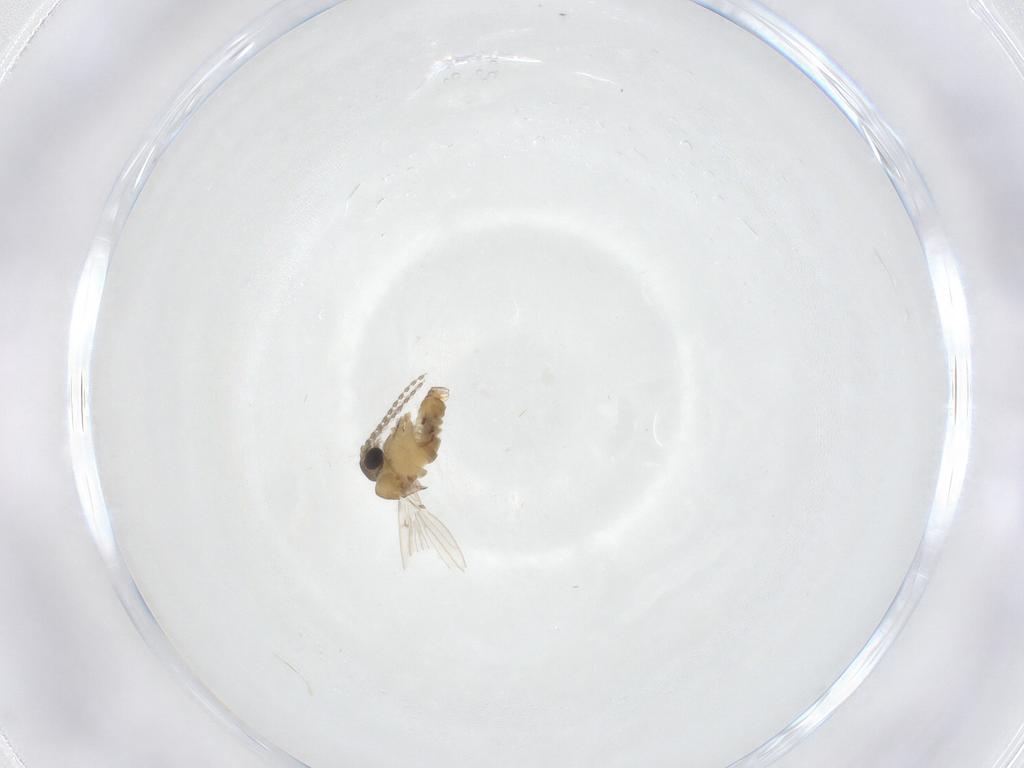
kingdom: Animalia
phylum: Arthropoda
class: Insecta
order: Diptera
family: Psychodidae
